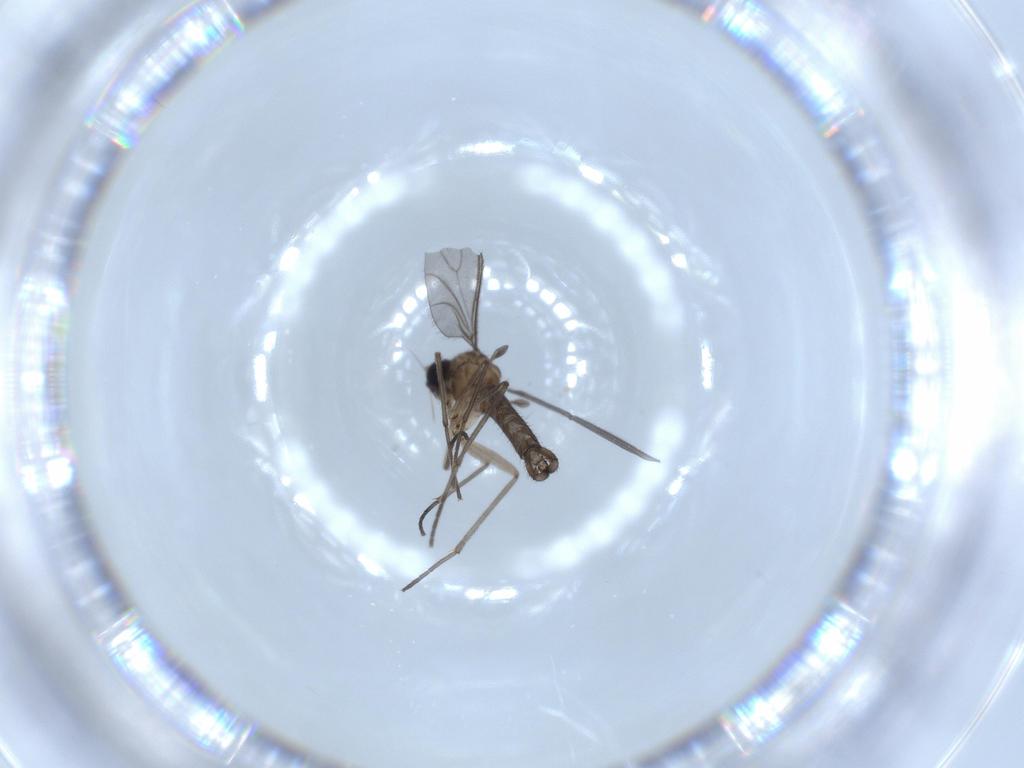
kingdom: Animalia
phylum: Arthropoda
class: Insecta
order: Diptera
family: Sciaridae
